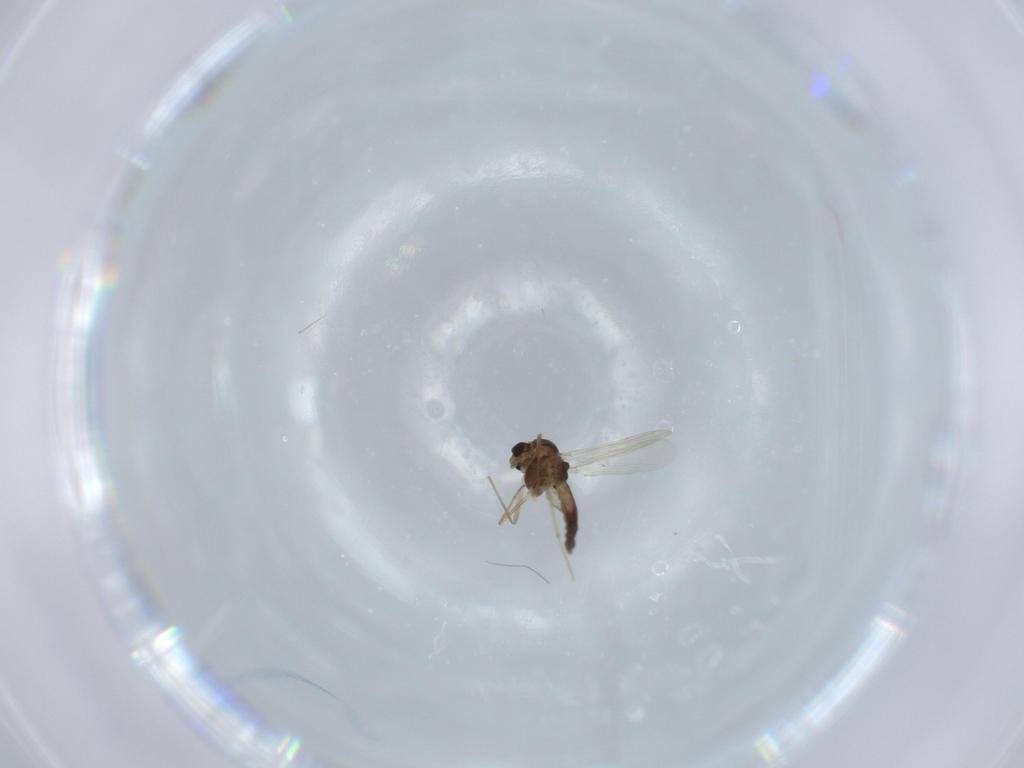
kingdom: Animalia
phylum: Arthropoda
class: Insecta
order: Diptera
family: Chironomidae
